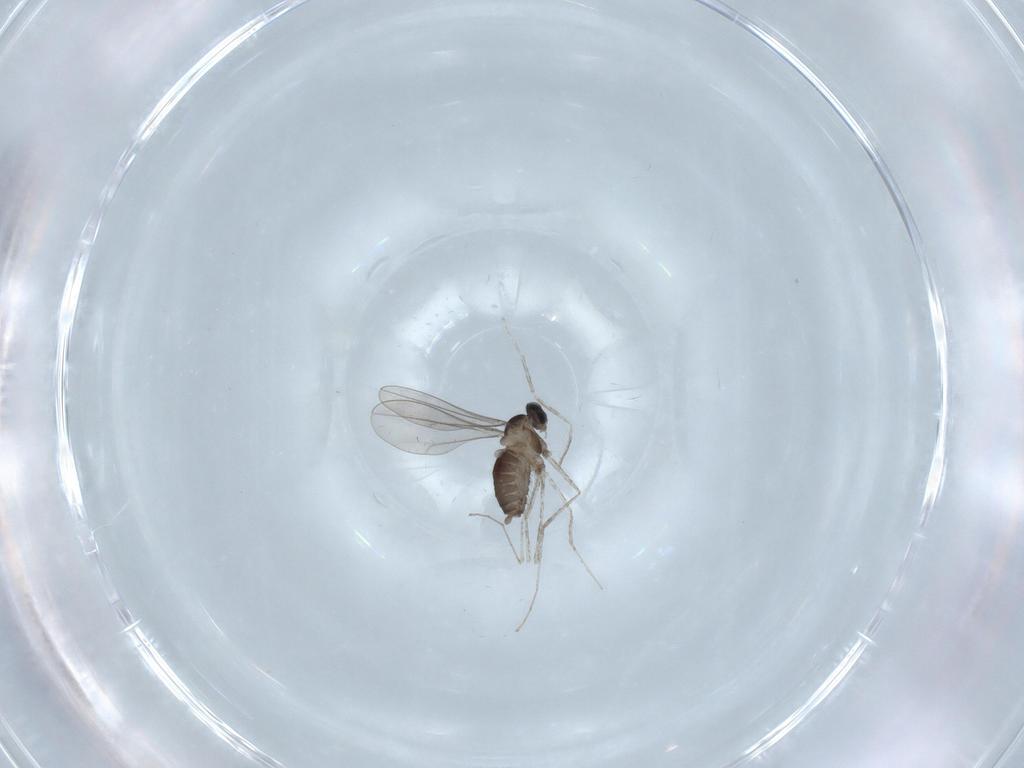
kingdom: Animalia
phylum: Arthropoda
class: Insecta
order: Diptera
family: Cecidomyiidae
